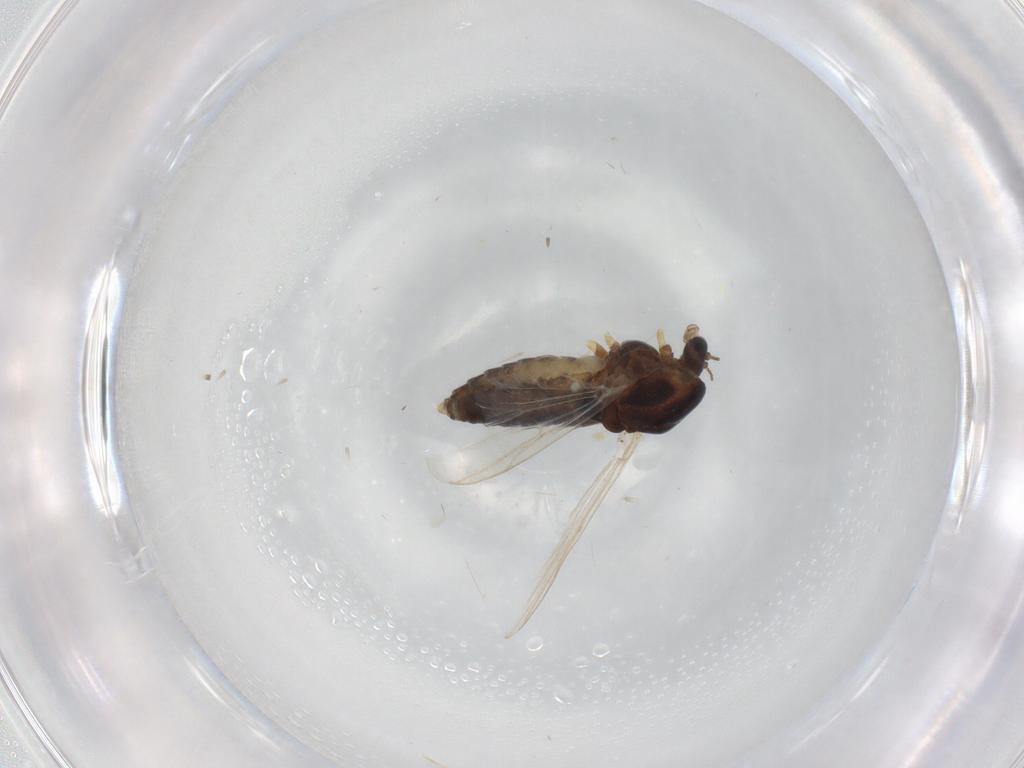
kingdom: Animalia
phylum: Arthropoda
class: Insecta
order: Diptera
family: Chironomidae
